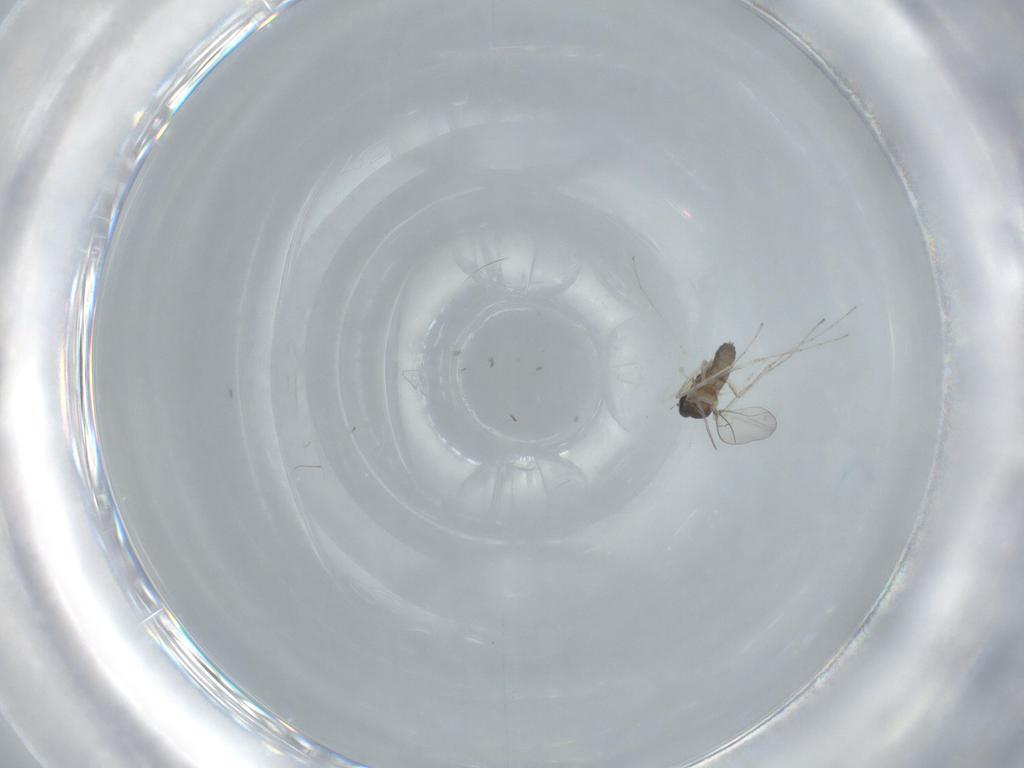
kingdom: Animalia
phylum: Arthropoda
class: Insecta
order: Diptera
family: Cecidomyiidae
